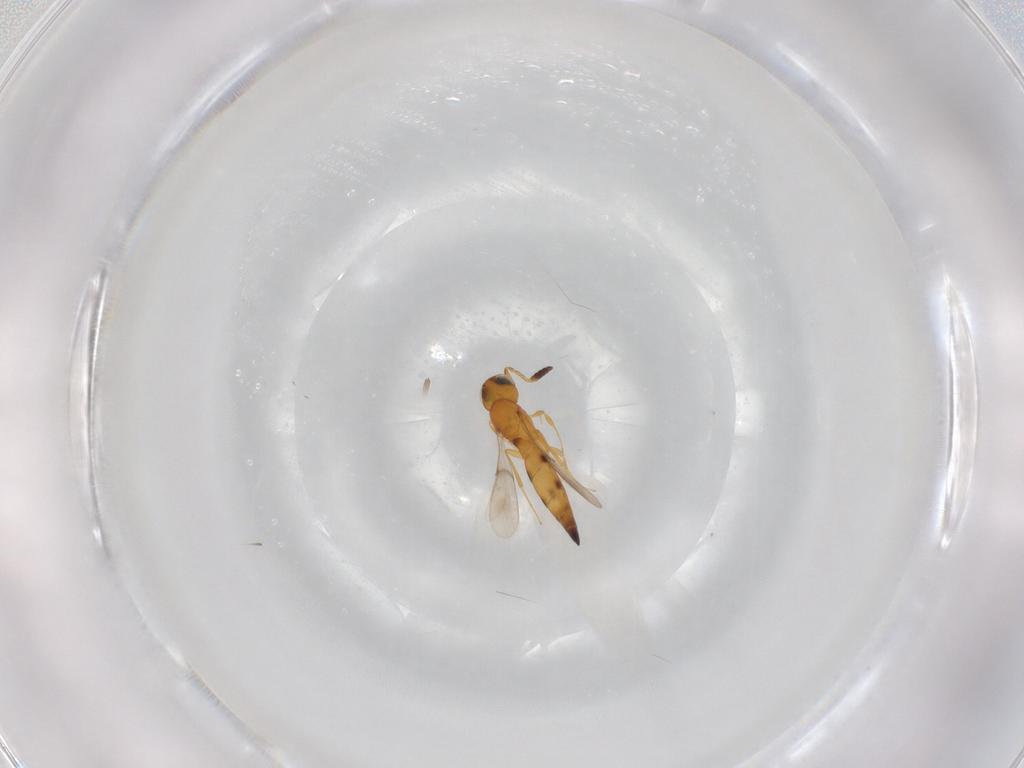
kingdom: Animalia
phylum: Arthropoda
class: Insecta
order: Hymenoptera
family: Scelionidae
